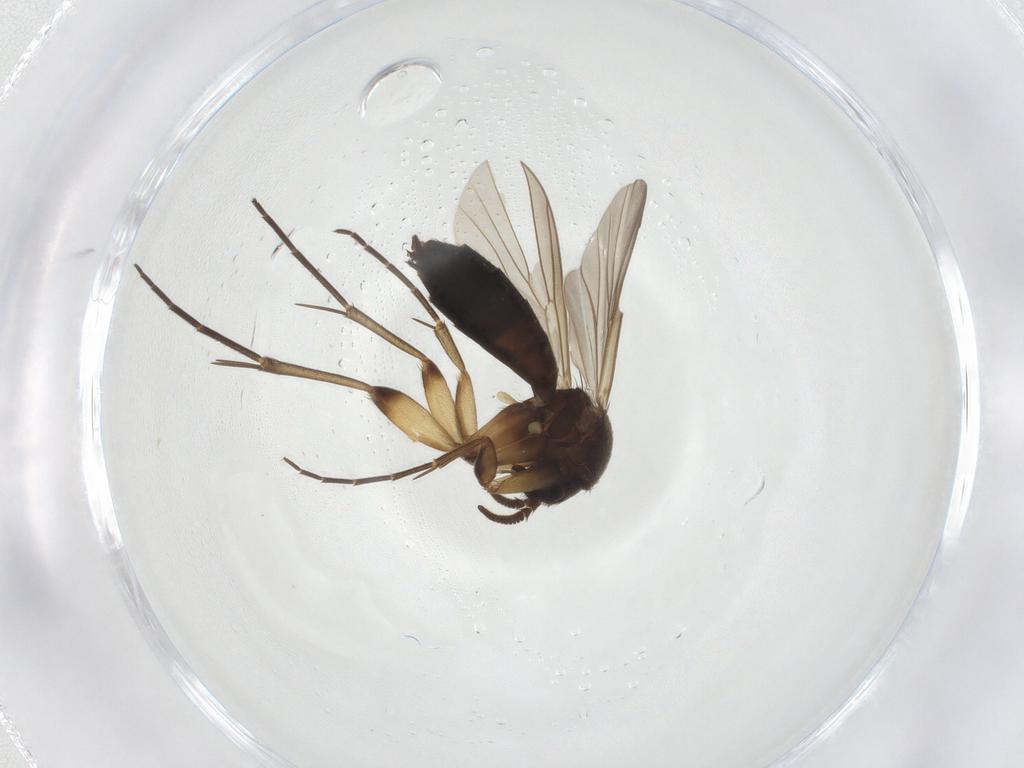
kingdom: Animalia
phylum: Arthropoda
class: Insecta
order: Diptera
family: Mycetophilidae
